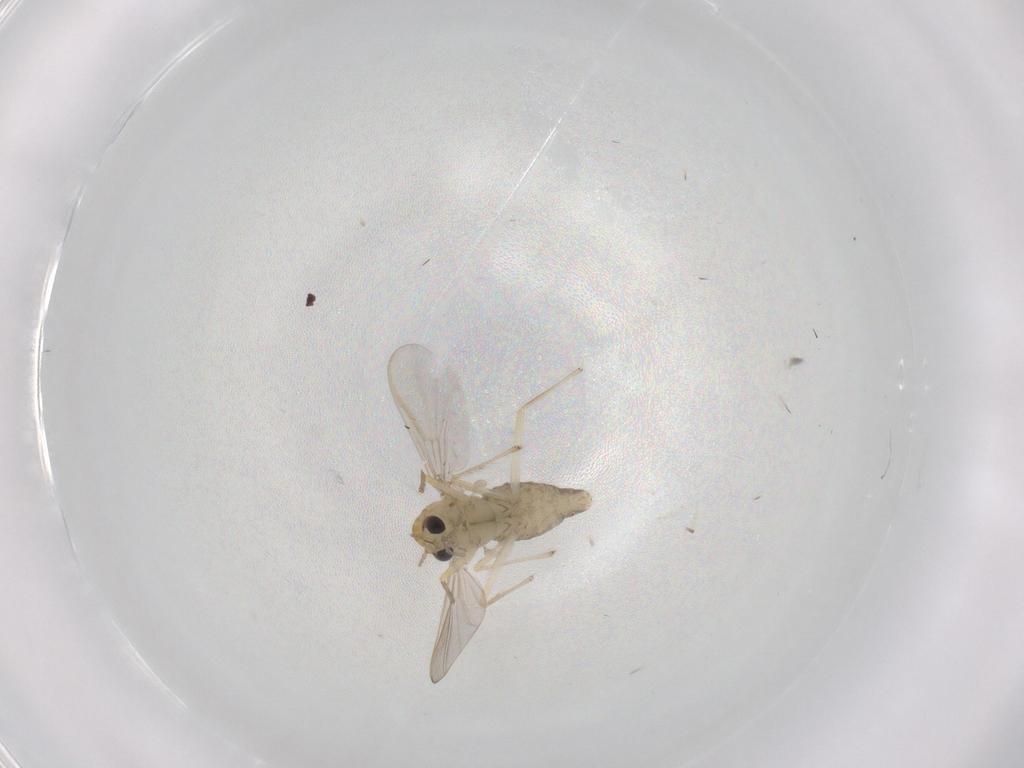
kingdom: Animalia
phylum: Arthropoda
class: Insecta
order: Diptera
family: Chironomidae
